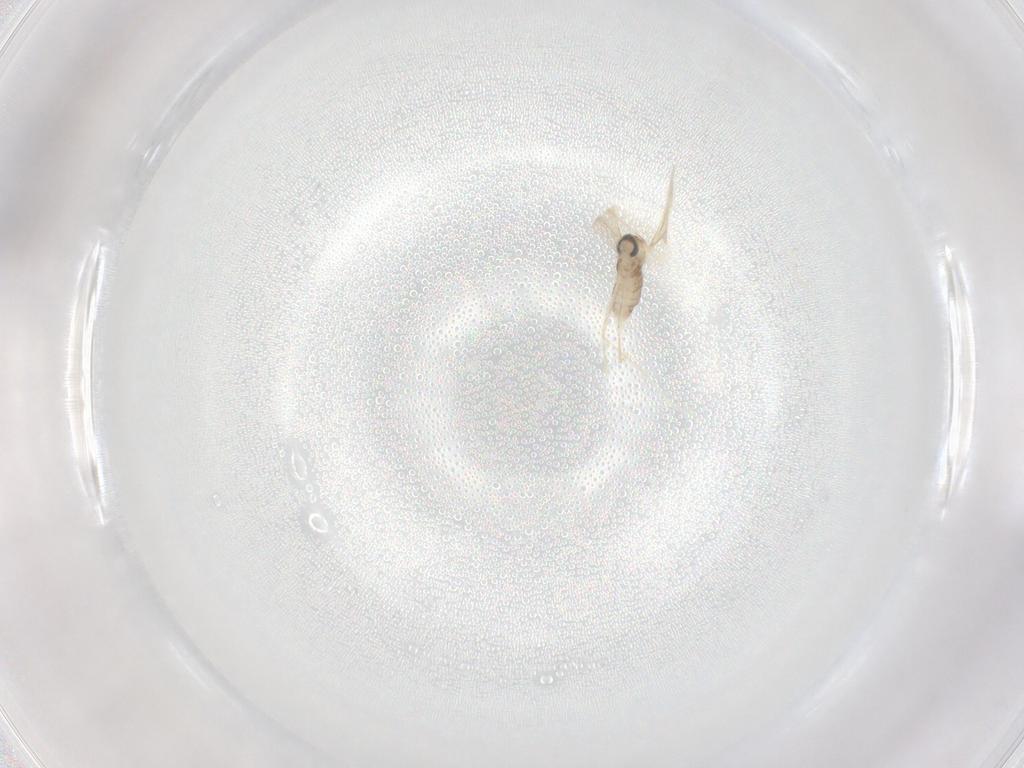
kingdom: Animalia
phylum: Arthropoda
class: Insecta
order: Diptera
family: Cecidomyiidae
